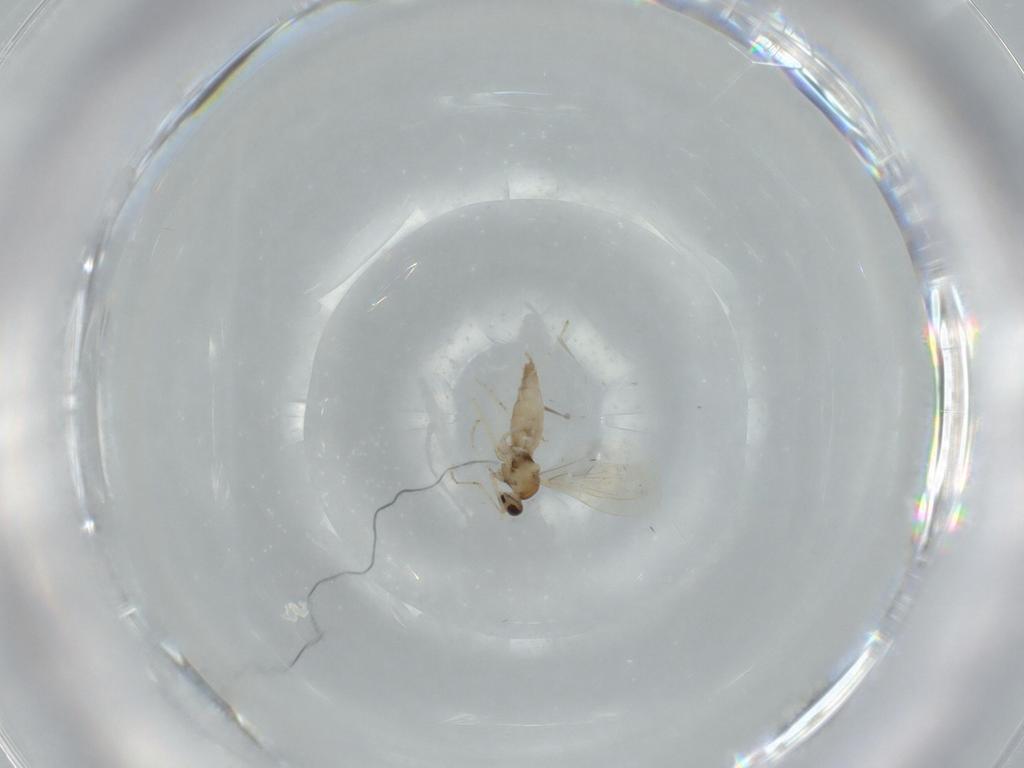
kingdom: Animalia
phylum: Arthropoda
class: Insecta
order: Diptera
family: Cecidomyiidae
